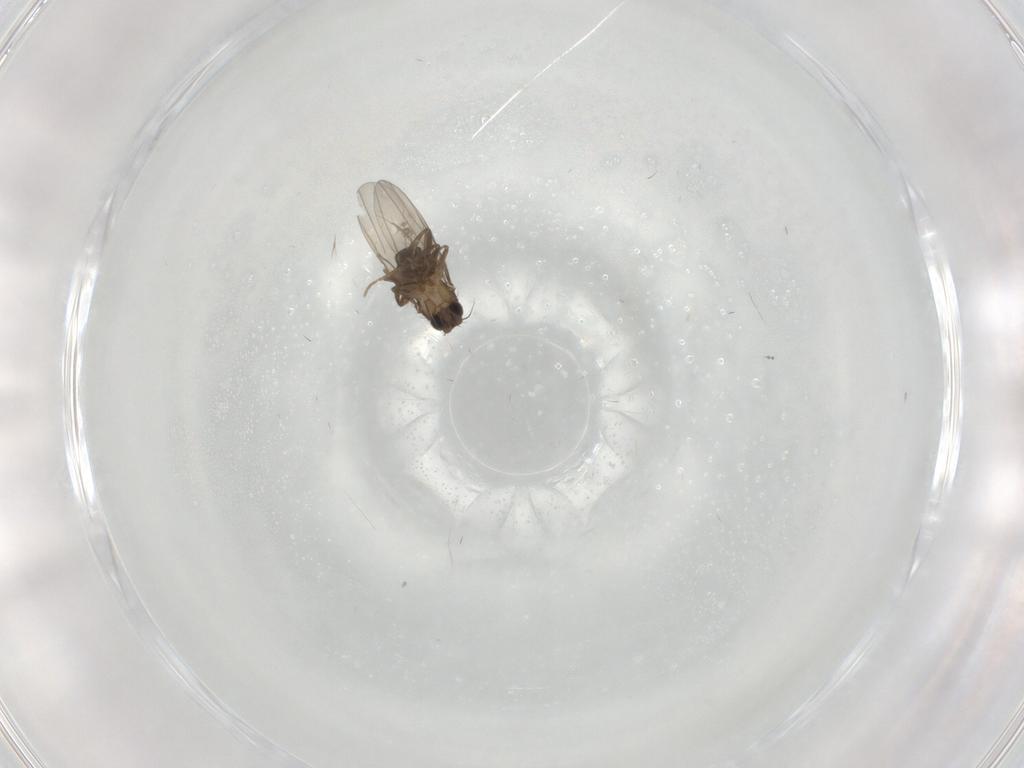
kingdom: Animalia
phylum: Arthropoda
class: Insecta
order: Diptera
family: Phoridae
